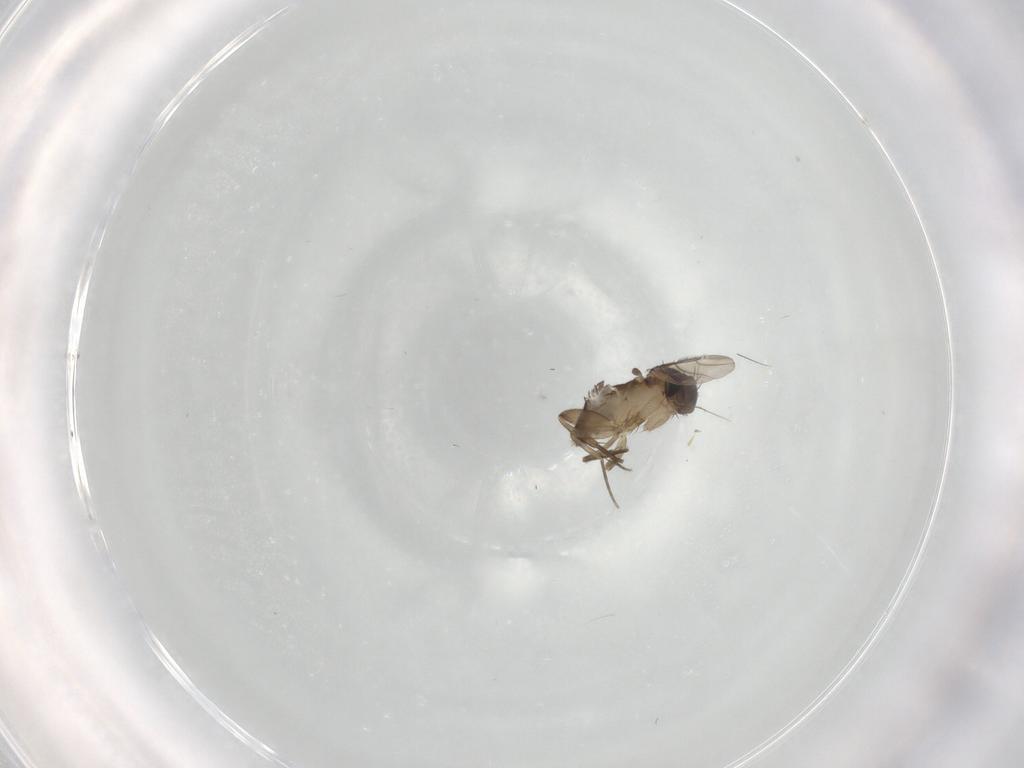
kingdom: Animalia
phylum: Arthropoda
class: Insecta
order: Diptera
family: Phoridae
